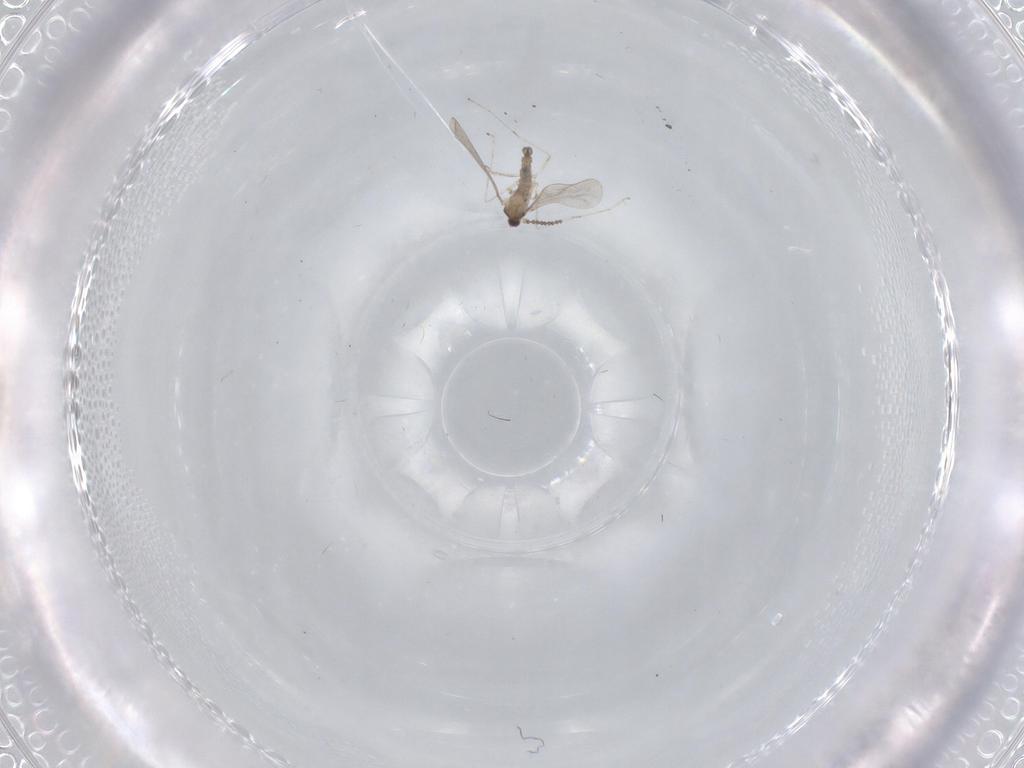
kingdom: Animalia
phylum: Arthropoda
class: Insecta
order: Diptera
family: Cecidomyiidae
